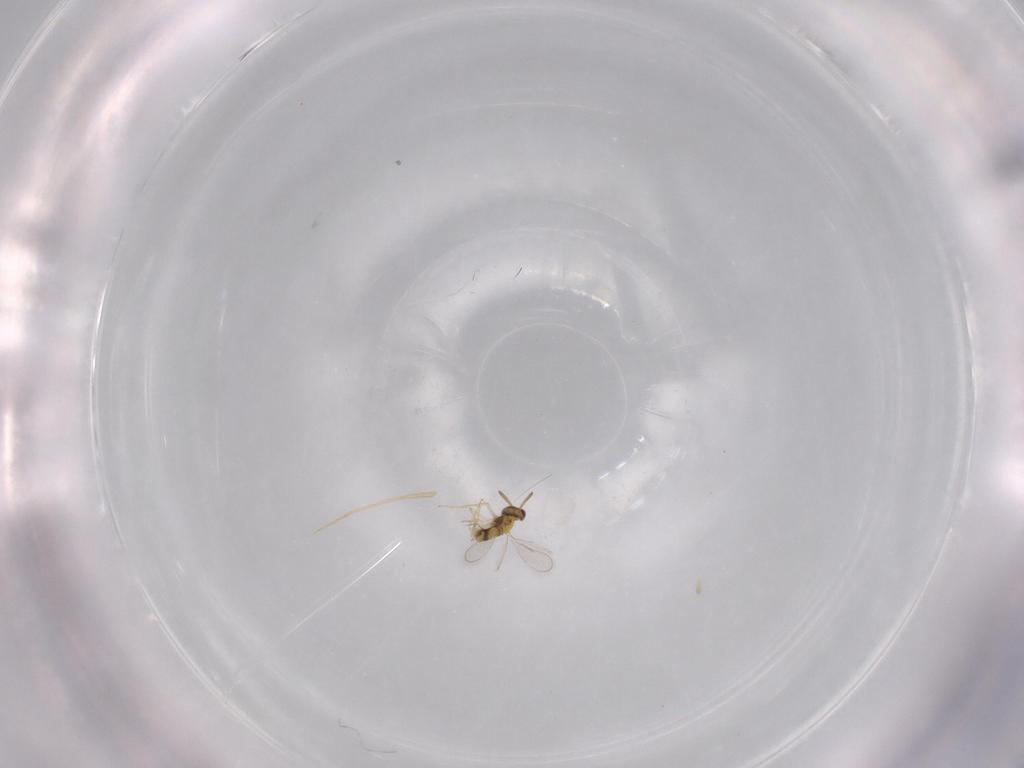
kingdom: Animalia
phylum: Arthropoda
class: Insecta
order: Hymenoptera
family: Aphelinidae
